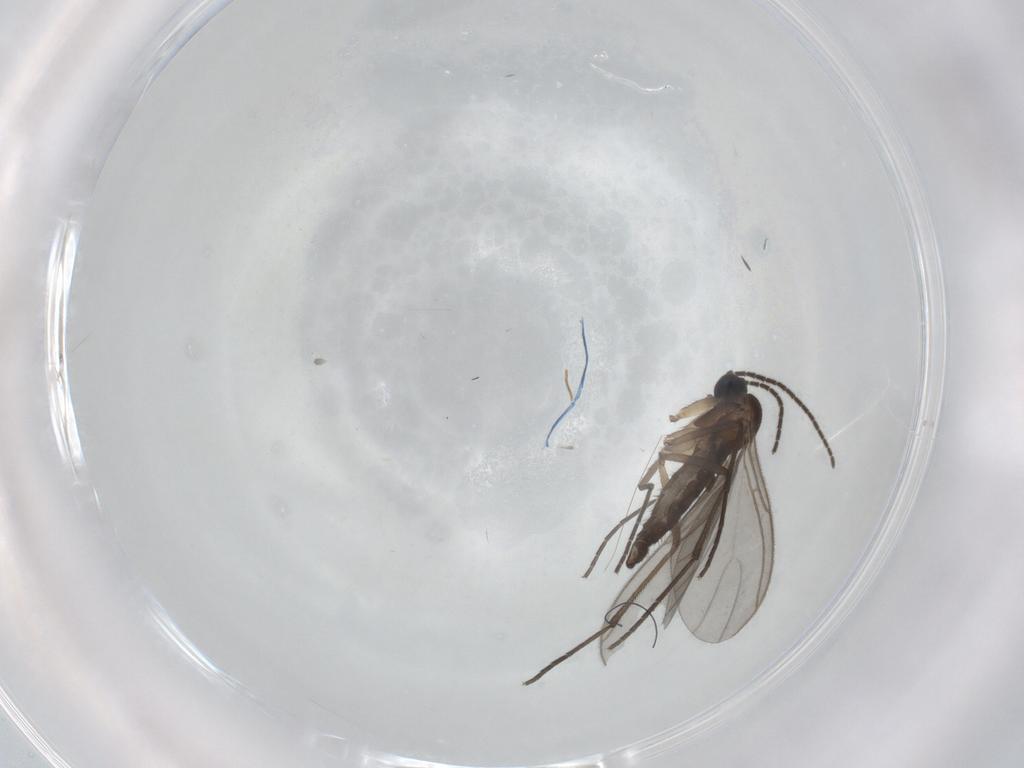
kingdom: Animalia
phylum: Arthropoda
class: Insecta
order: Diptera
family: Sciaridae
